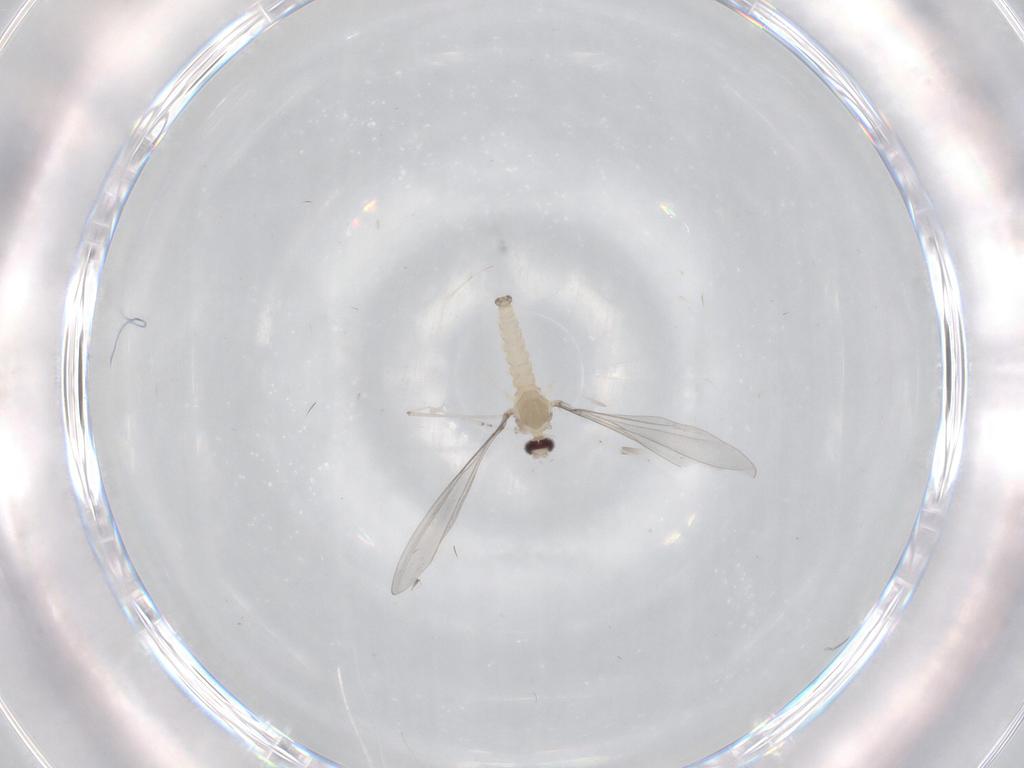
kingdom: Animalia
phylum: Arthropoda
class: Insecta
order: Diptera
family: Cecidomyiidae
